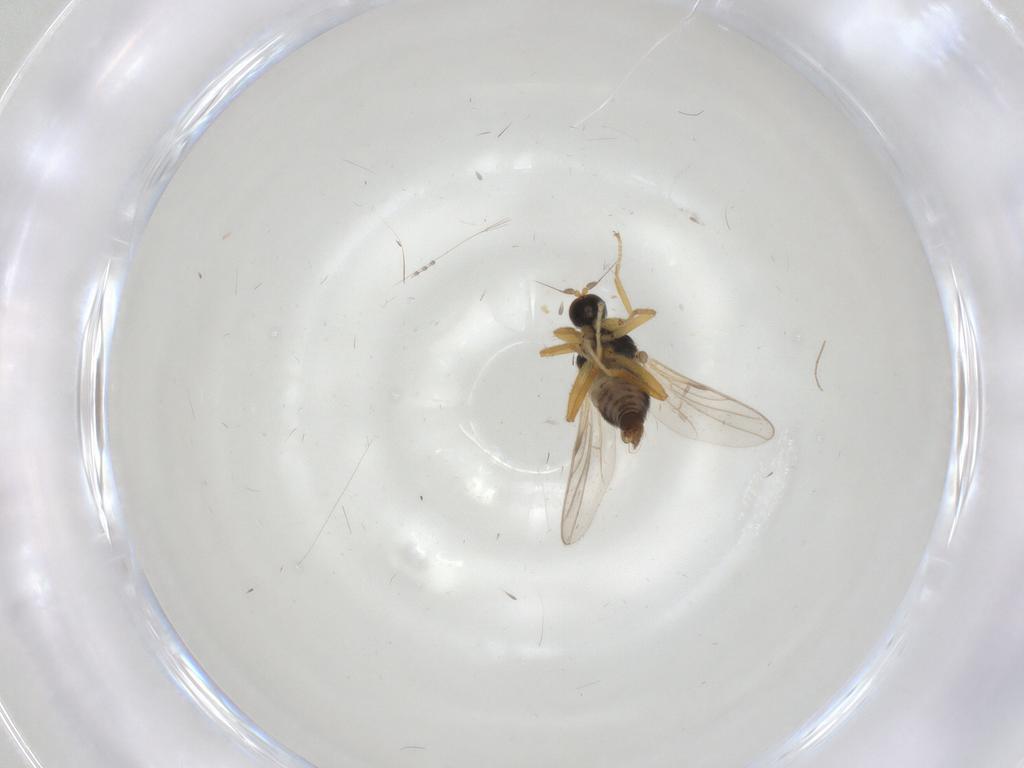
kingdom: Animalia
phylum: Arthropoda
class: Insecta
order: Diptera
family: Hybotidae
